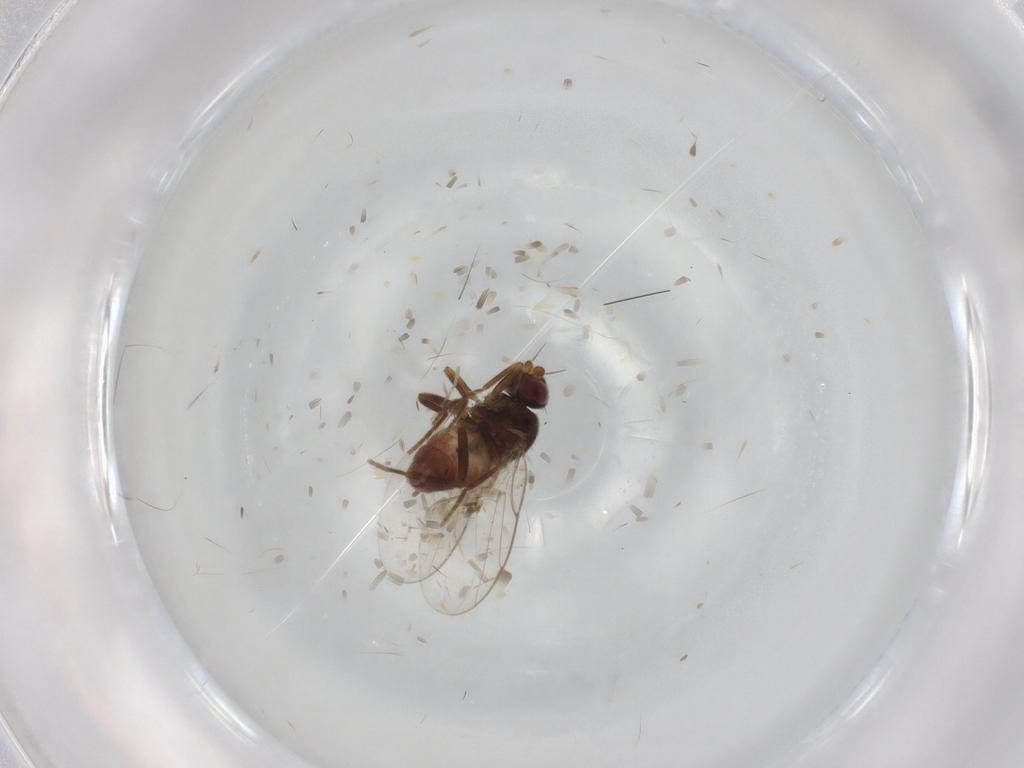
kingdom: Animalia
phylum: Arthropoda
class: Insecta
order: Diptera
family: Chloropidae
